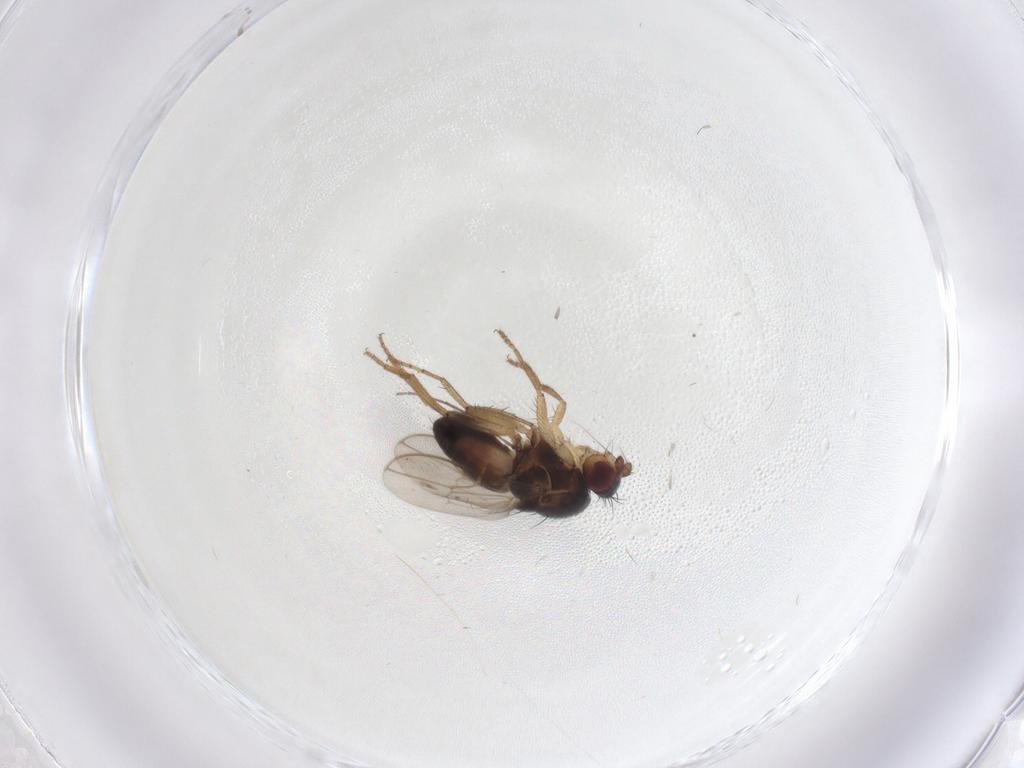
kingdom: Animalia
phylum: Arthropoda
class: Insecta
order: Diptera
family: Sphaeroceridae
